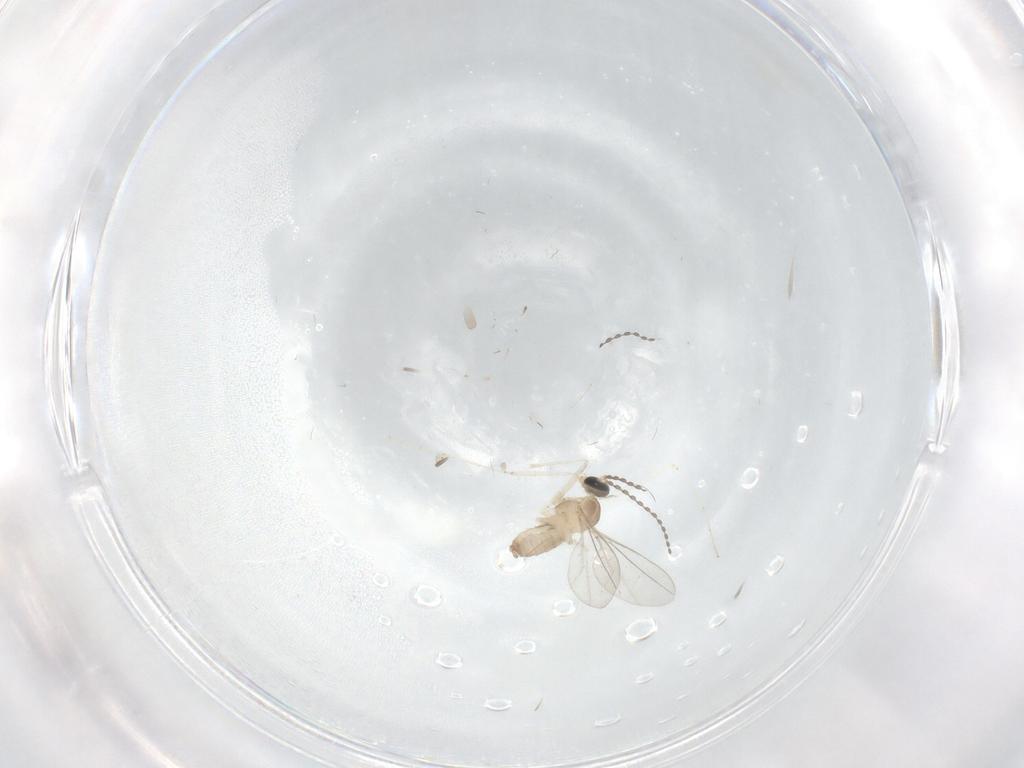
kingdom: Animalia
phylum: Arthropoda
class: Insecta
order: Diptera
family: Cecidomyiidae
